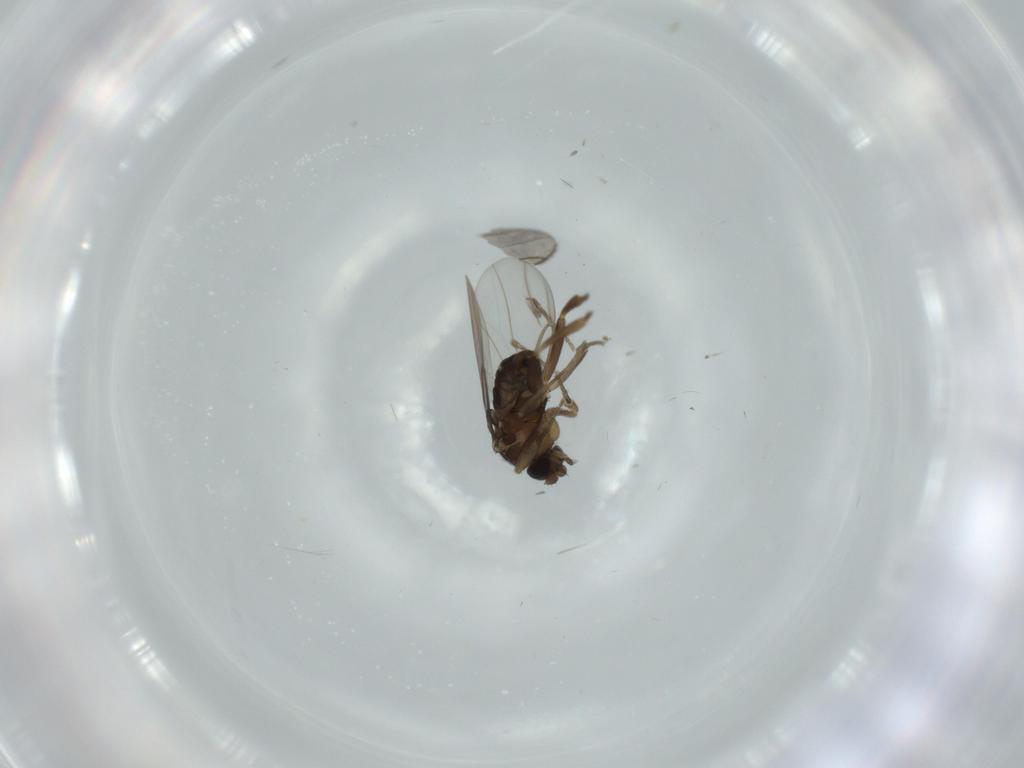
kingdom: Animalia
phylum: Arthropoda
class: Insecta
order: Diptera
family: Phoridae
